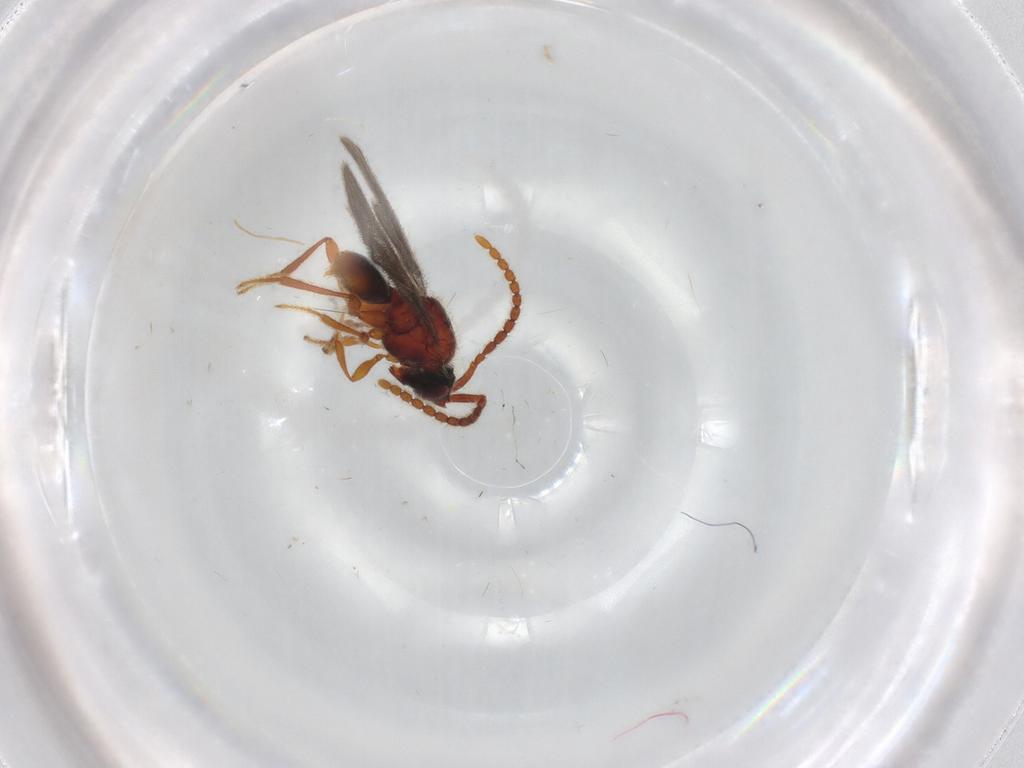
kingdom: Animalia
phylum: Arthropoda
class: Insecta
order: Hymenoptera
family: Diapriidae
